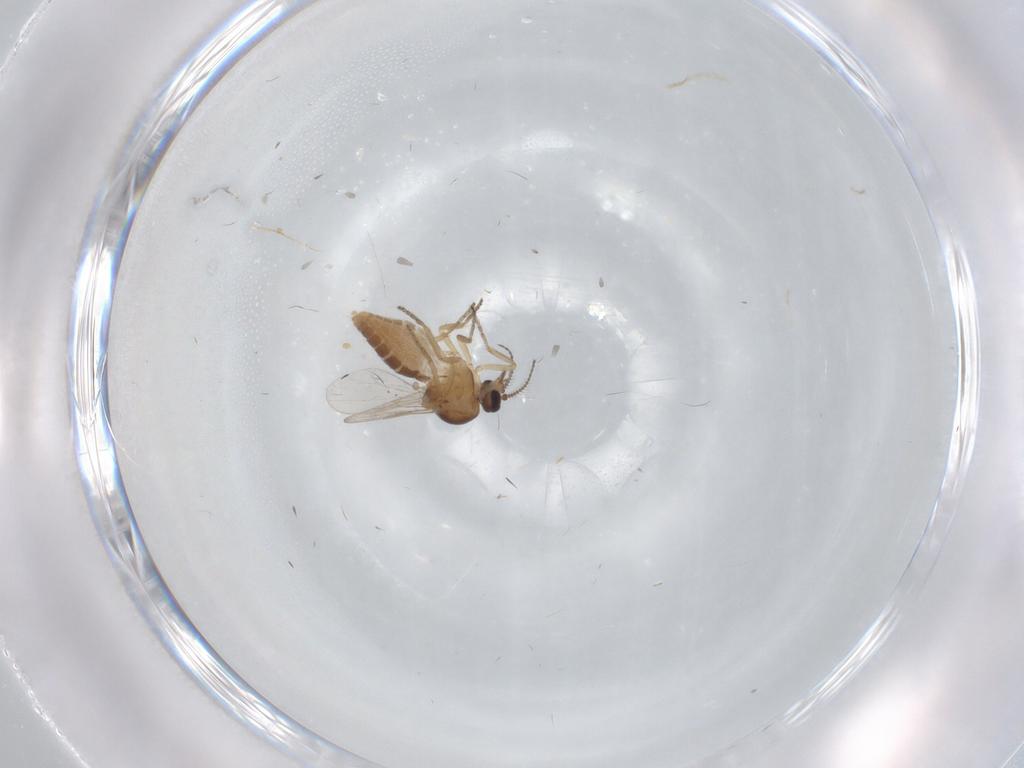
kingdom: Animalia
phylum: Arthropoda
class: Insecta
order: Diptera
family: Ceratopogonidae
